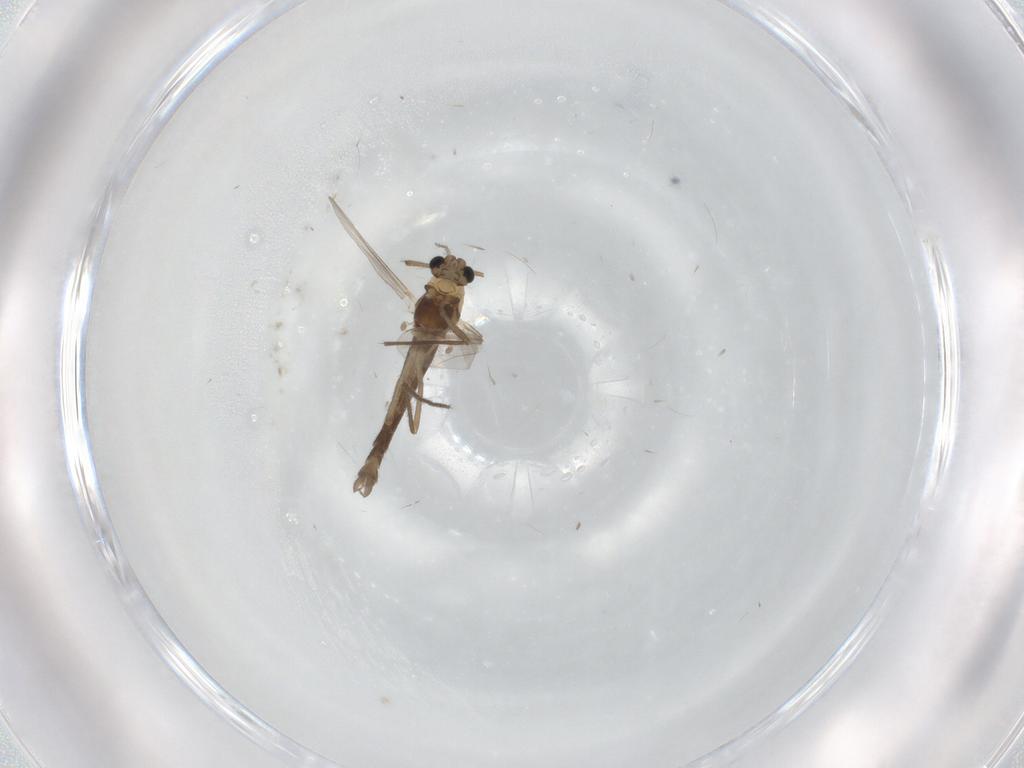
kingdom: Animalia
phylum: Arthropoda
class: Insecta
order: Diptera
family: Chironomidae
